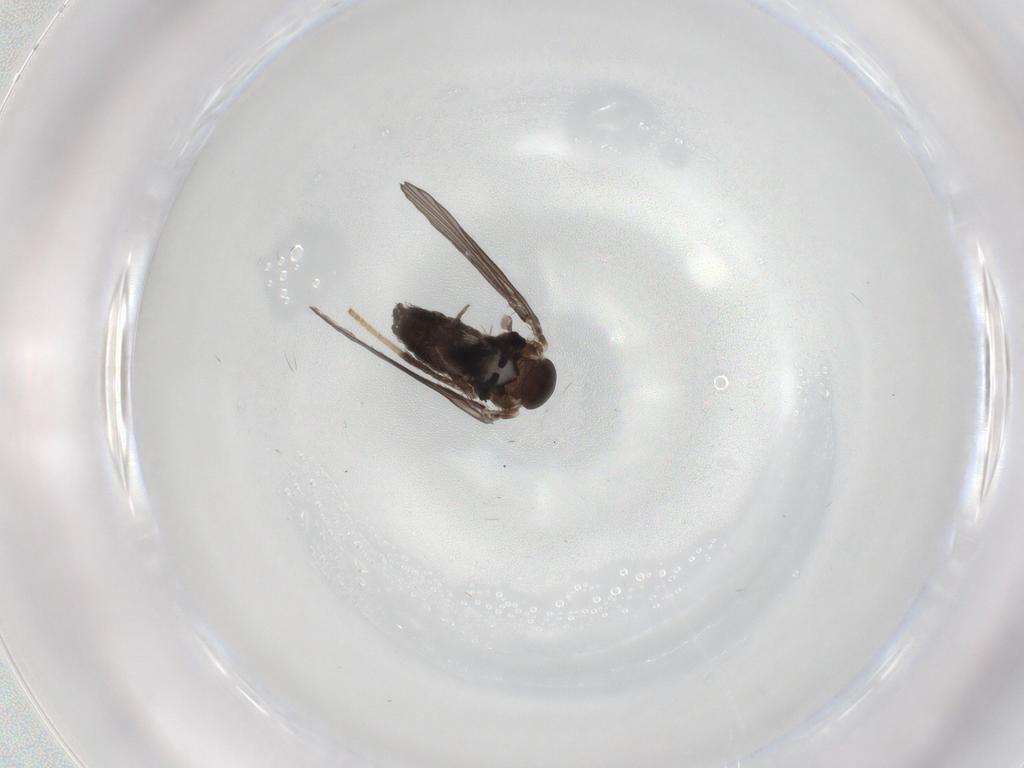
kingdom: Animalia
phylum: Arthropoda
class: Insecta
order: Diptera
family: Psychodidae
